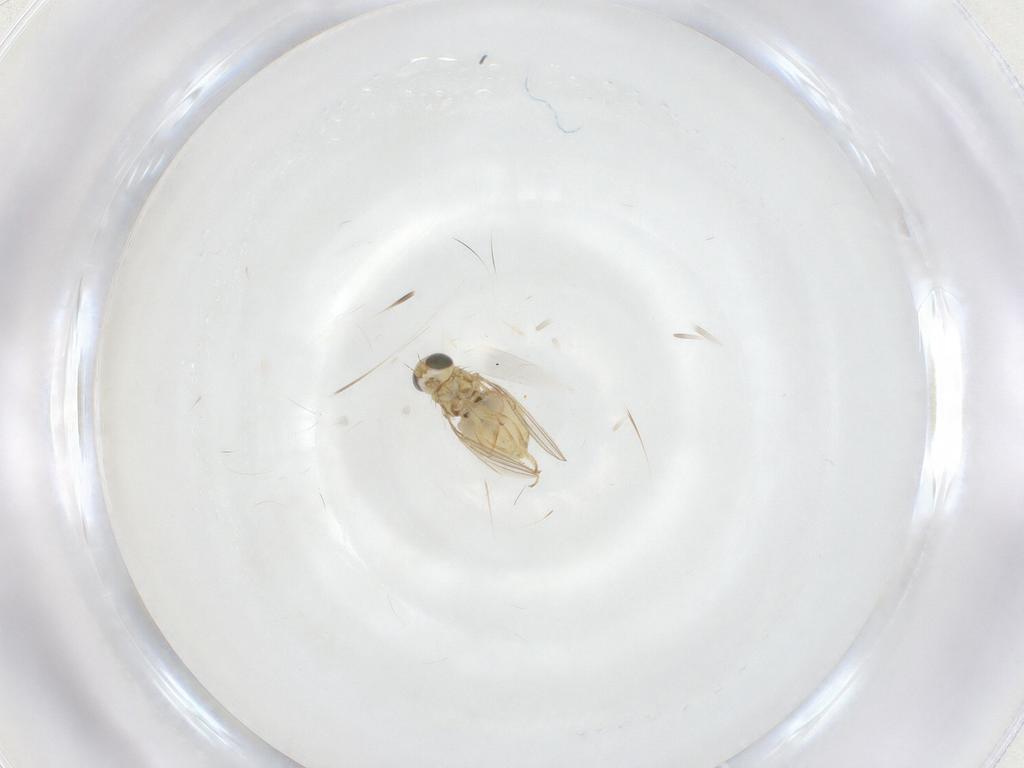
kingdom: Animalia
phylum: Arthropoda
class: Insecta
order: Diptera
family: Chyromyidae
